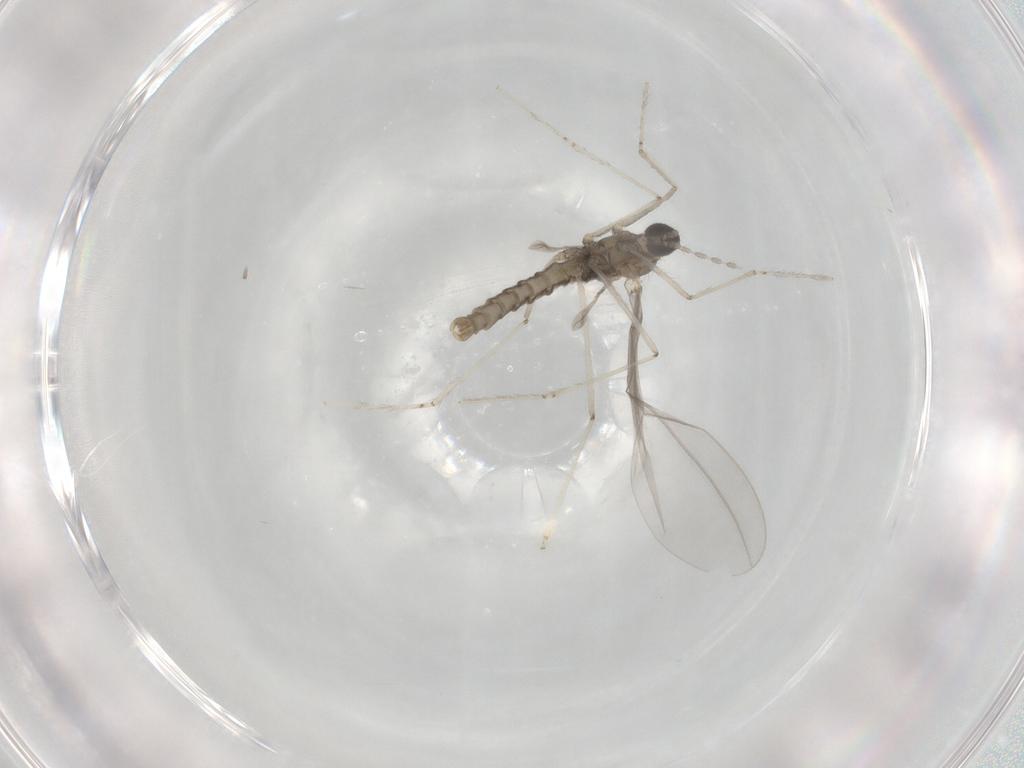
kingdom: Animalia
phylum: Arthropoda
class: Insecta
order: Diptera
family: Cecidomyiidae
